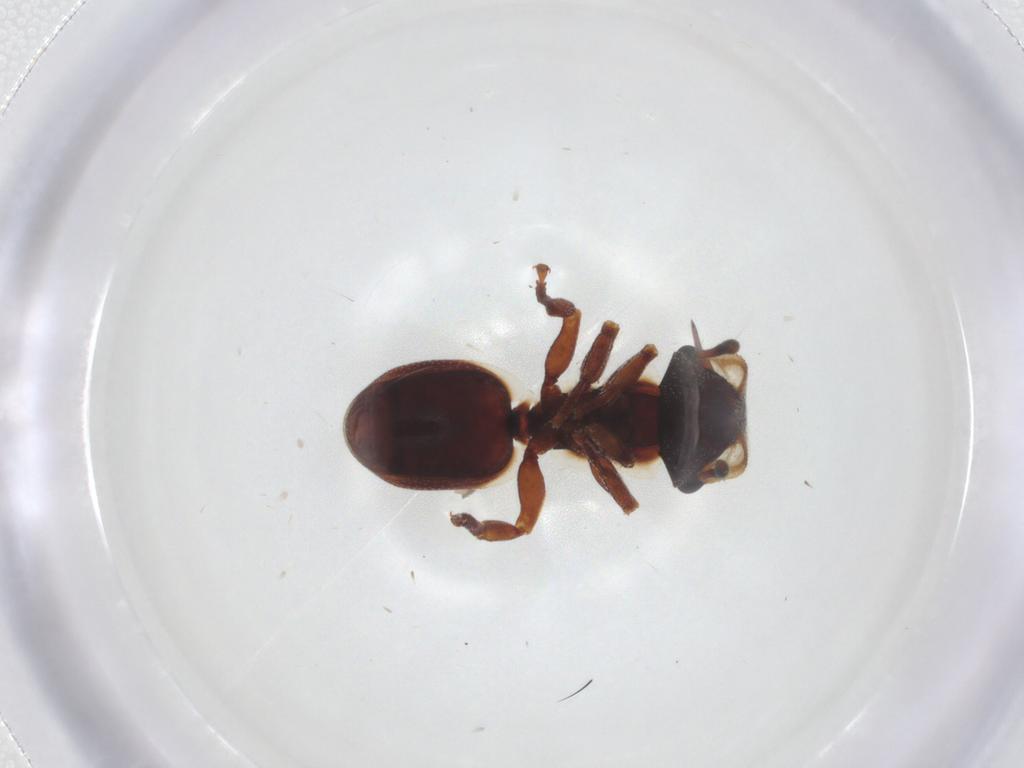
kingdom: Animalia
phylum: Arthropoda
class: Insecta
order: Hymenoptera
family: Formicidae
